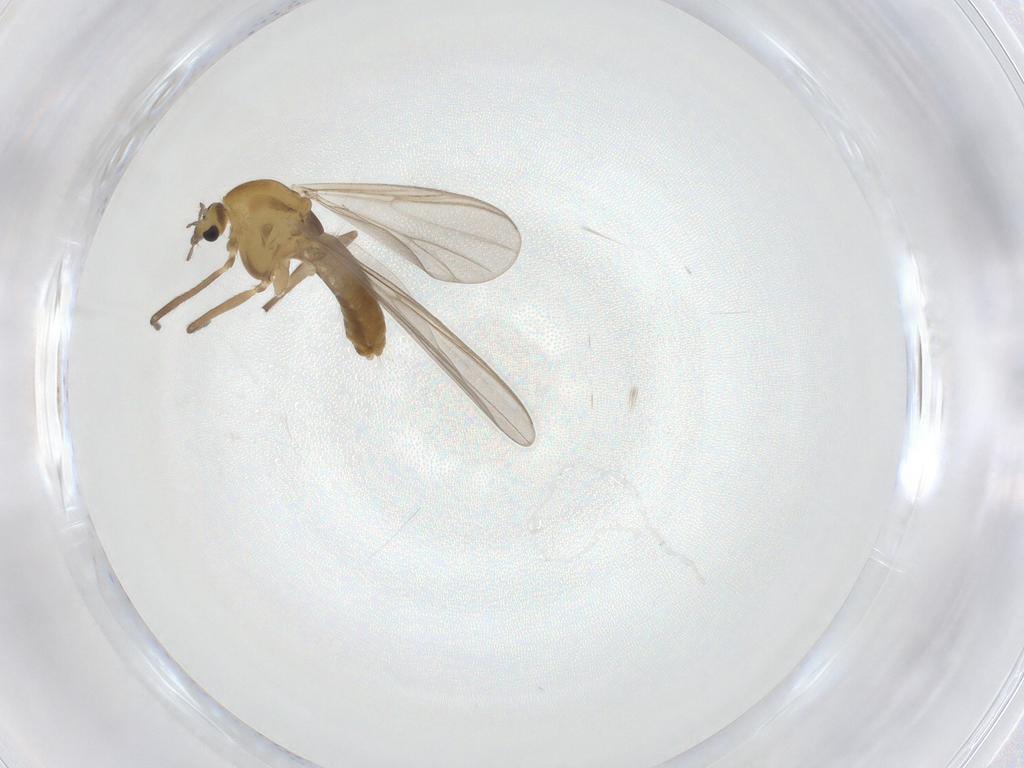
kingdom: Animalia
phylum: Arthropoda
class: Insecta
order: Diptera
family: Chironomidae
